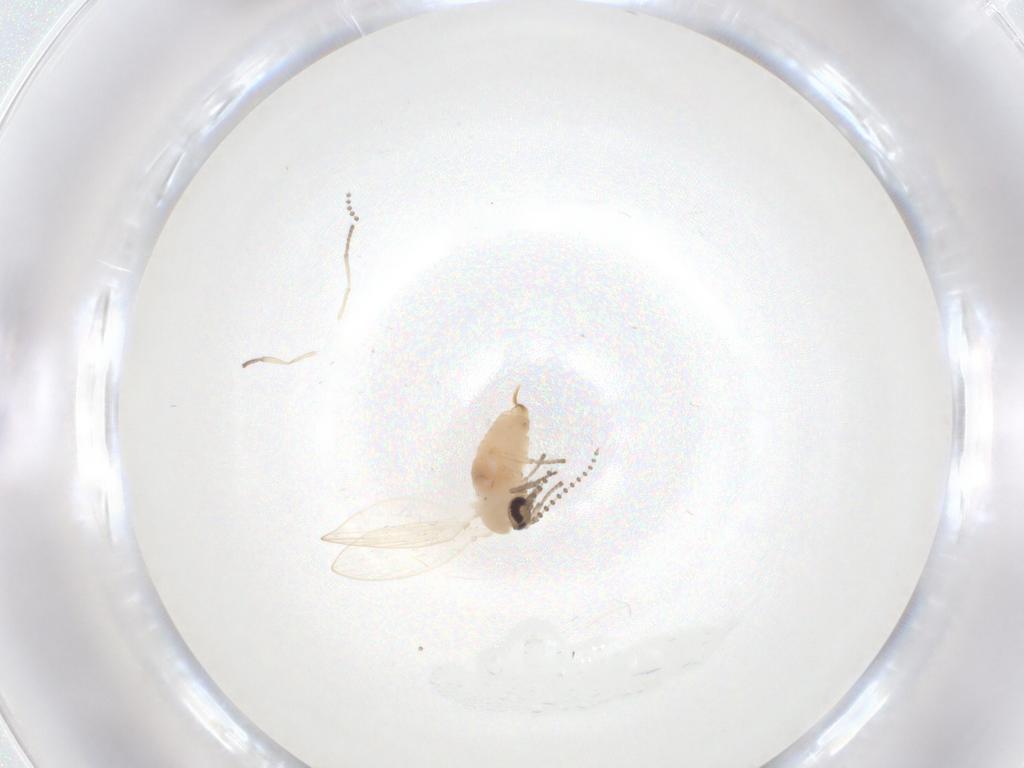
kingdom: Animalia
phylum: Arthropoda
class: Insecta
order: Diptera
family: Psychodidae
